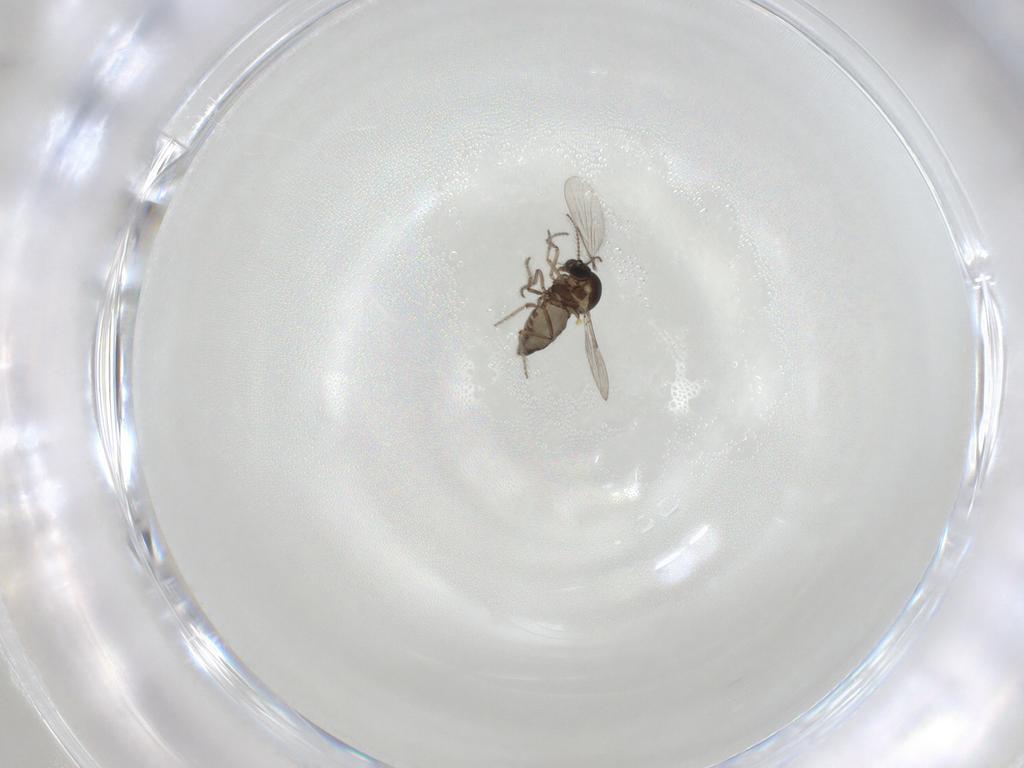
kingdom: Animalia
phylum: Arthropoda
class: Insecta
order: Diptera
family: Ceratopogonidae
